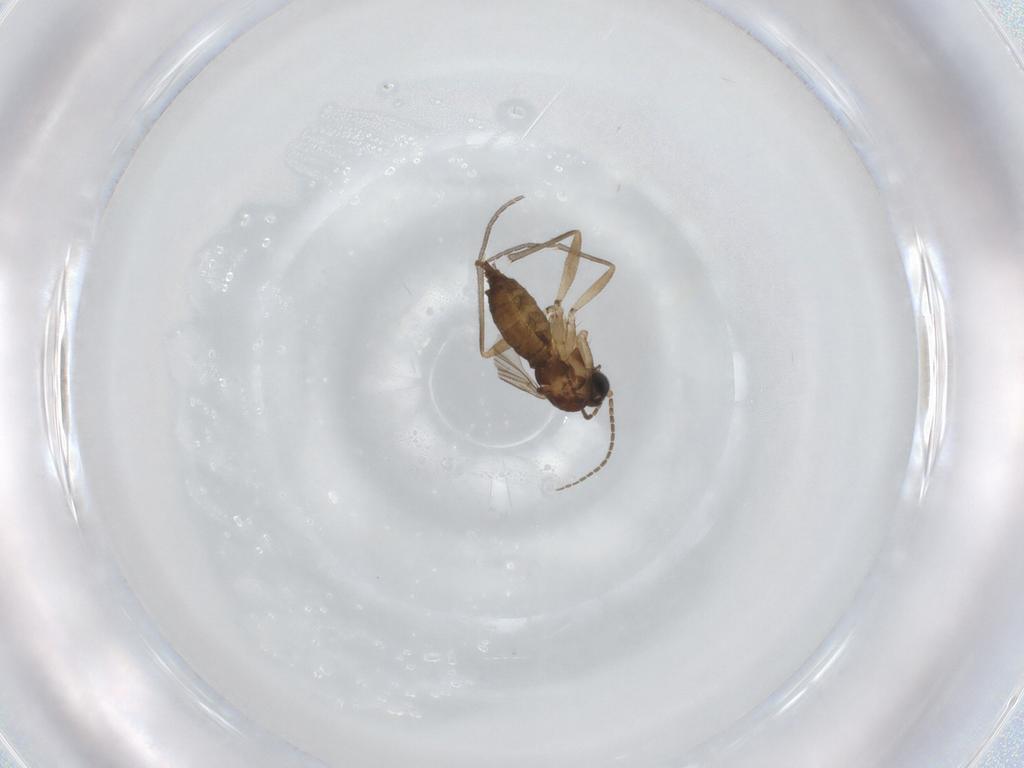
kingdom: Animalia
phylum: Arthropoda
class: Insecta
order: Diptera
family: Mycetophilidae
